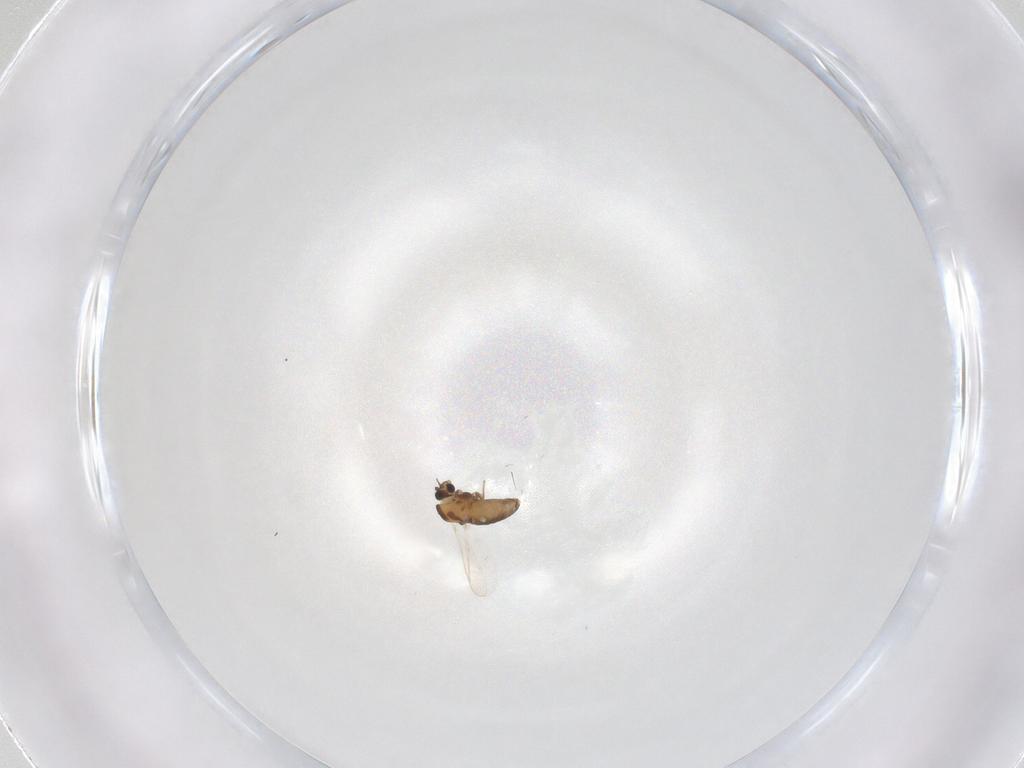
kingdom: Animalia
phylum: Arthropoda
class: Insecta
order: Diptera
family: Chironomidae
